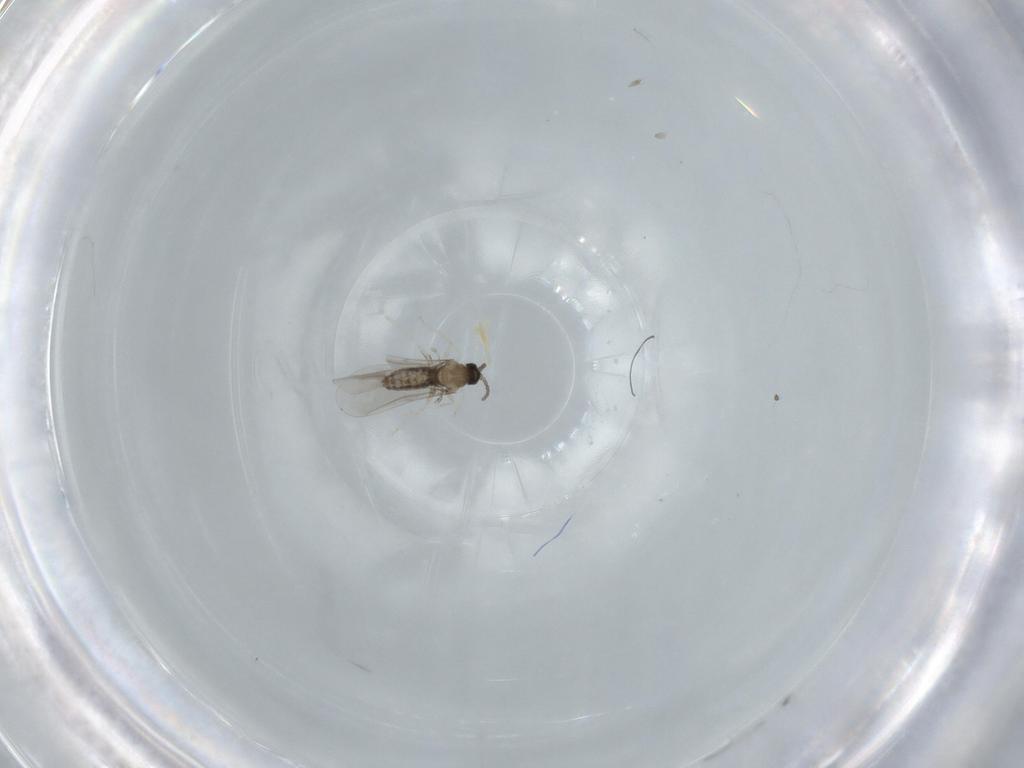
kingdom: Animalia
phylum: Arthropoda
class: Insecta
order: Diptera
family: Cecidomyiidae
